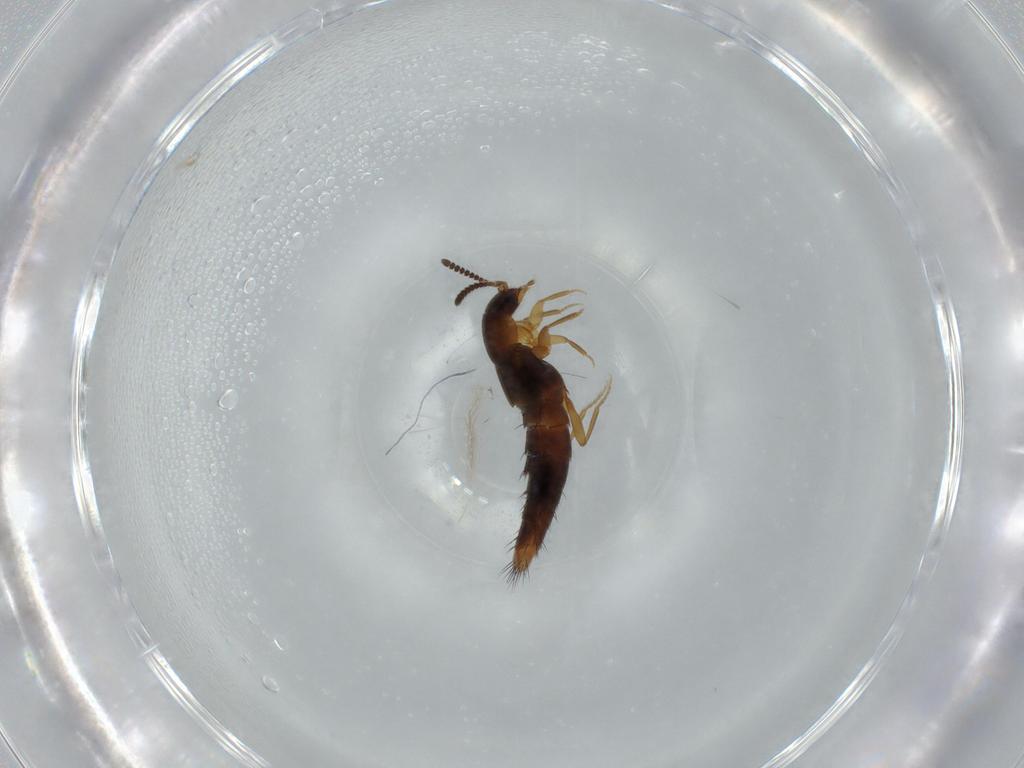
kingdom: Animalia
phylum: Arthropoda
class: Insecta
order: Coleoptera
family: Staphylinidae
